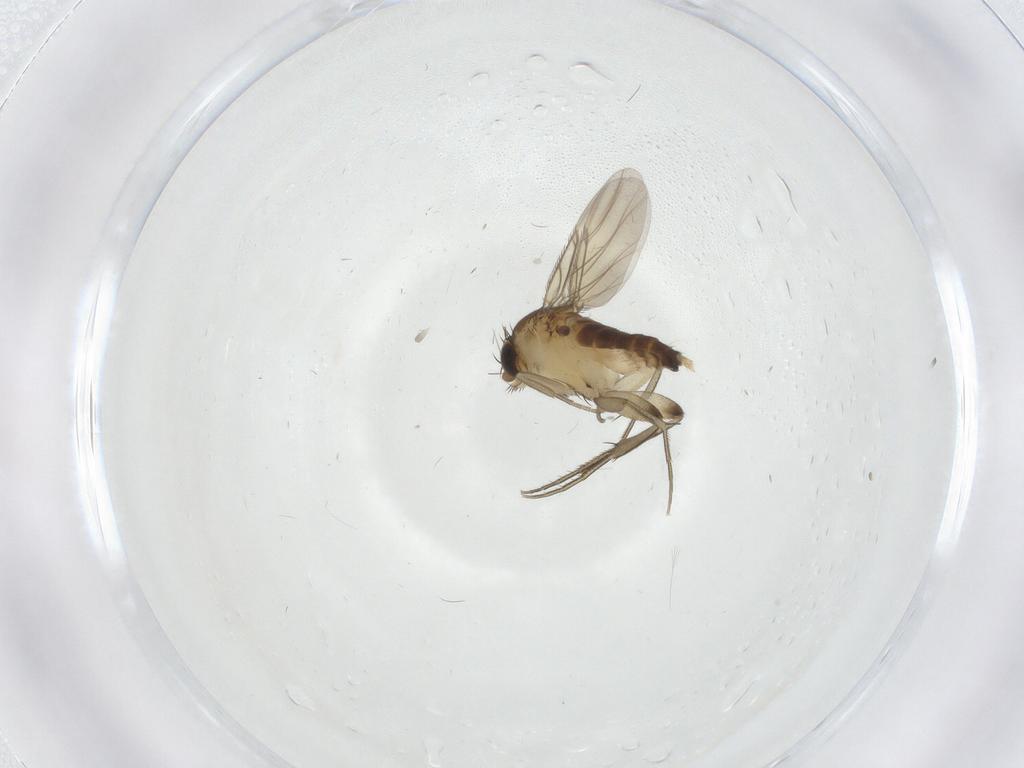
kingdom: Animalia
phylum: Arthropoda
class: Insecta
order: Diptera
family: Phoridae
